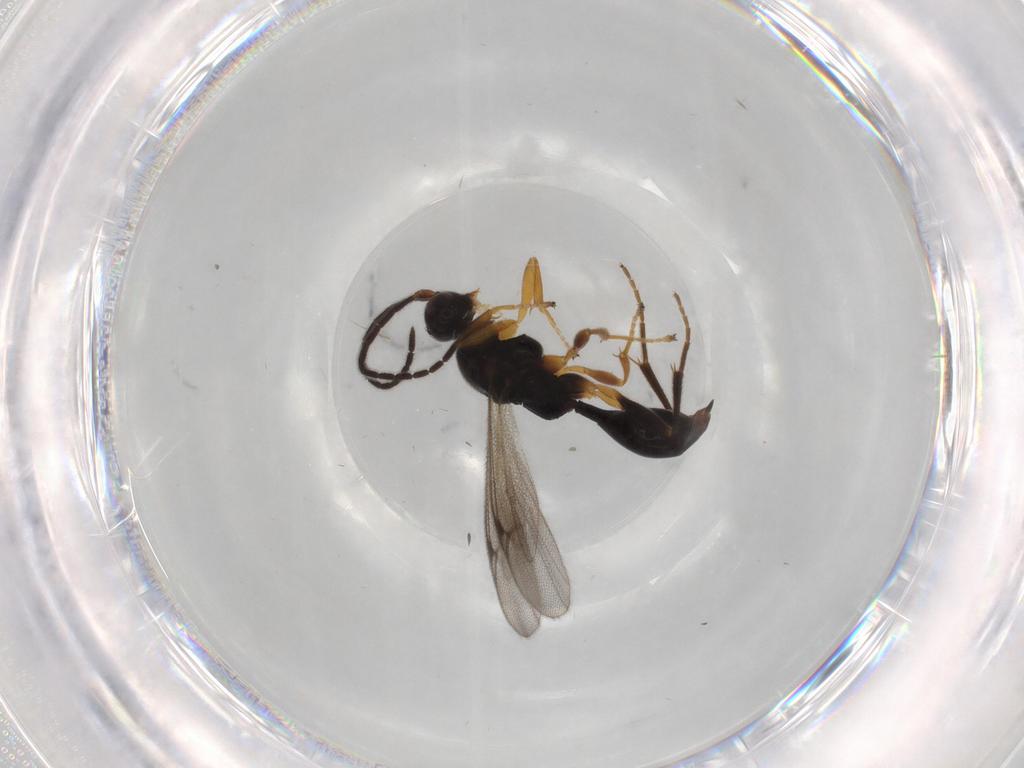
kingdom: Animalia
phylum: Arthropoda
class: Insecta
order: Hymenoptera
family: Proctotrupidae
